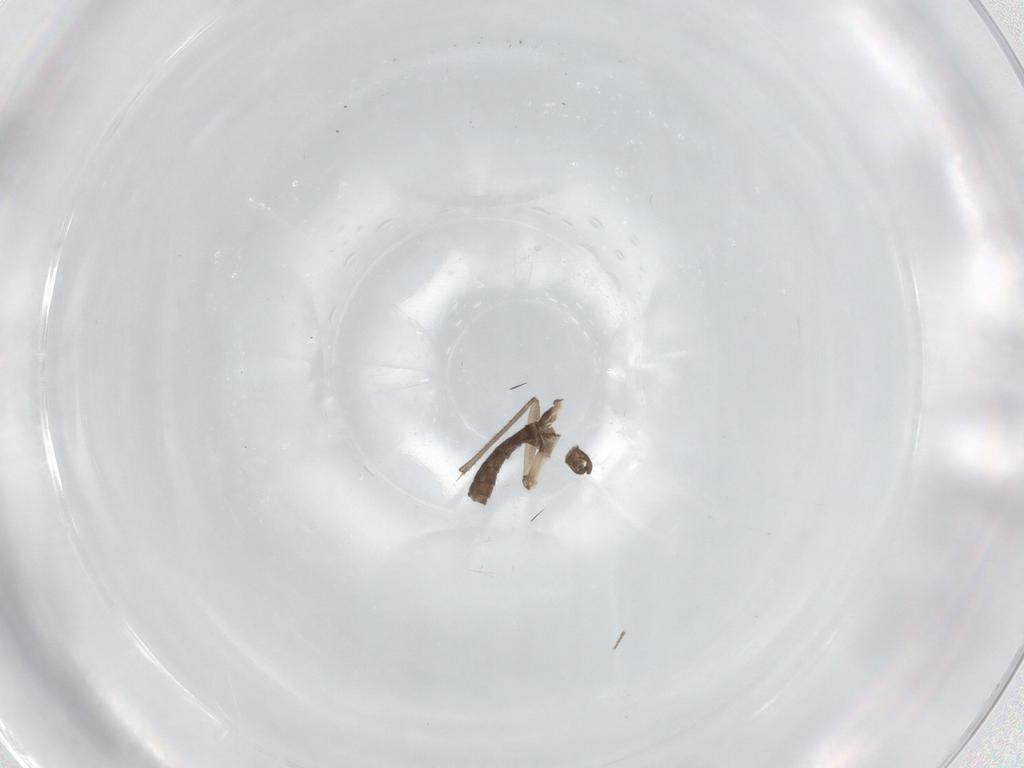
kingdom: Animalia
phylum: Arthropoda
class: Insecta
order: Diptera
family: Sciaridae
